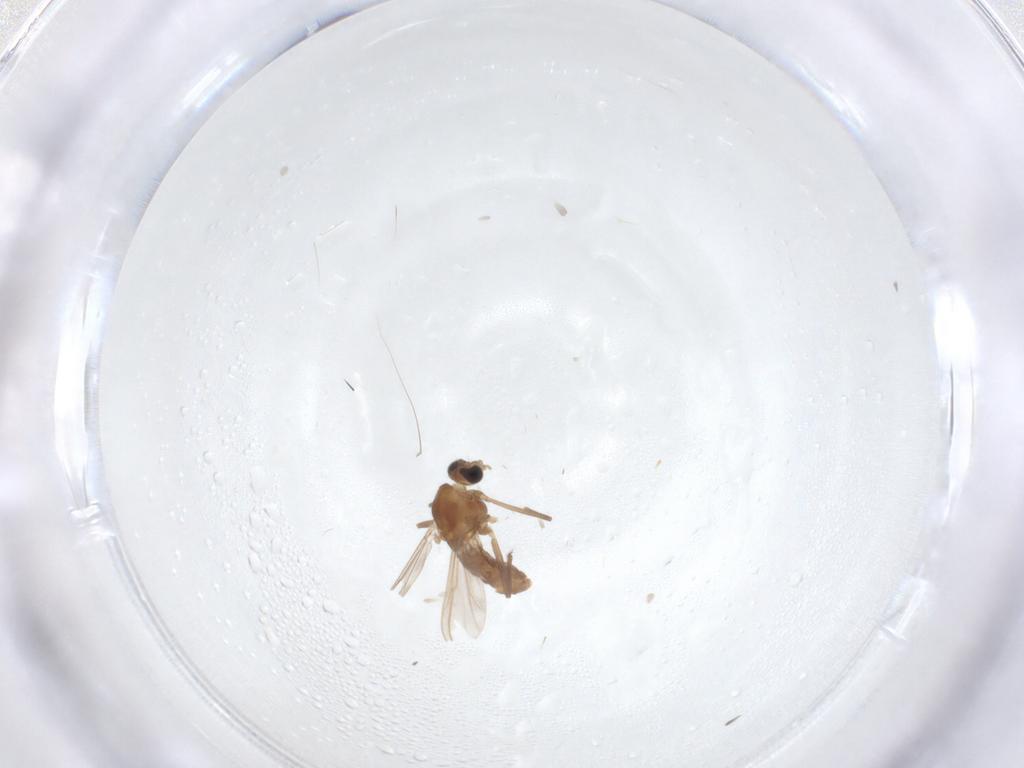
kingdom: Animalia
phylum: Arthropoda
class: Insecta
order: Diptera
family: Chironomidae
